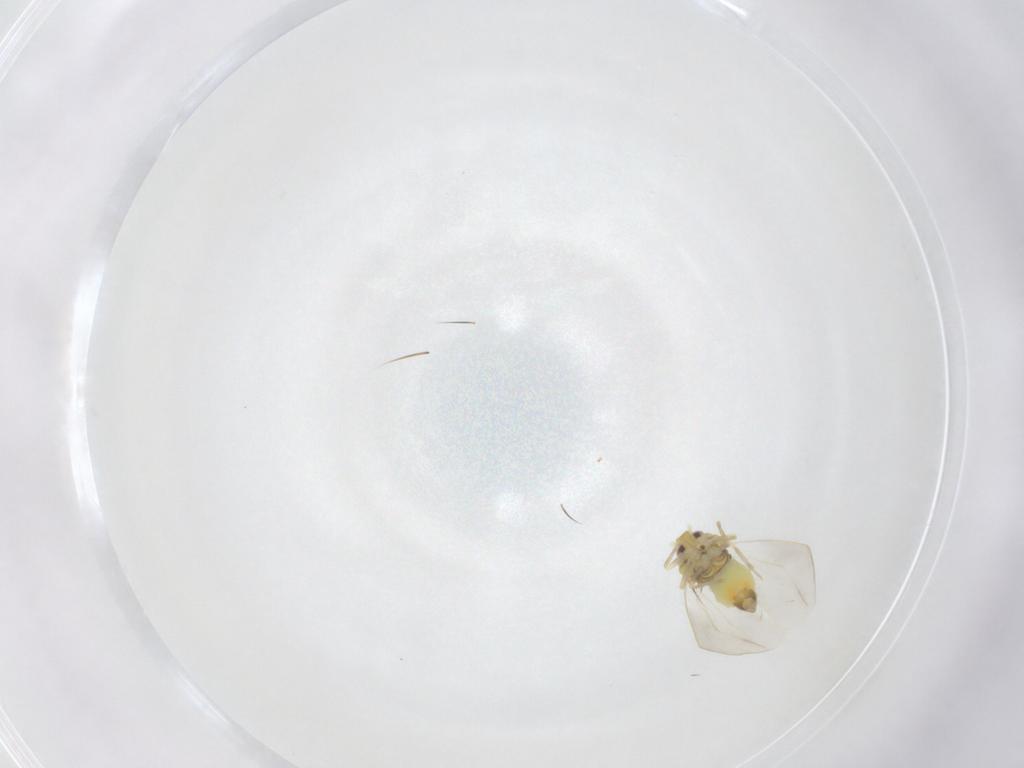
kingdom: Animalia
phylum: Arthropoda
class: Insecta
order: Hemiptera
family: Aleyrodidae
